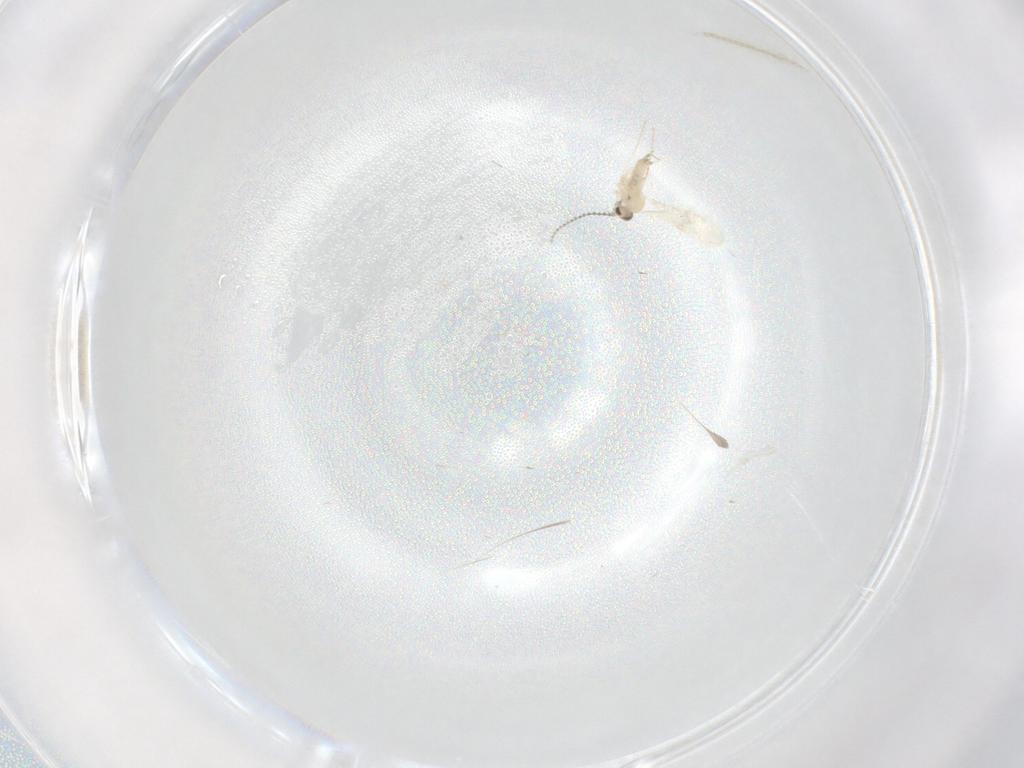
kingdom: Animalia
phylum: Arthropoda
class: Insecta
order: Diptera
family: Cecidomyiidae
